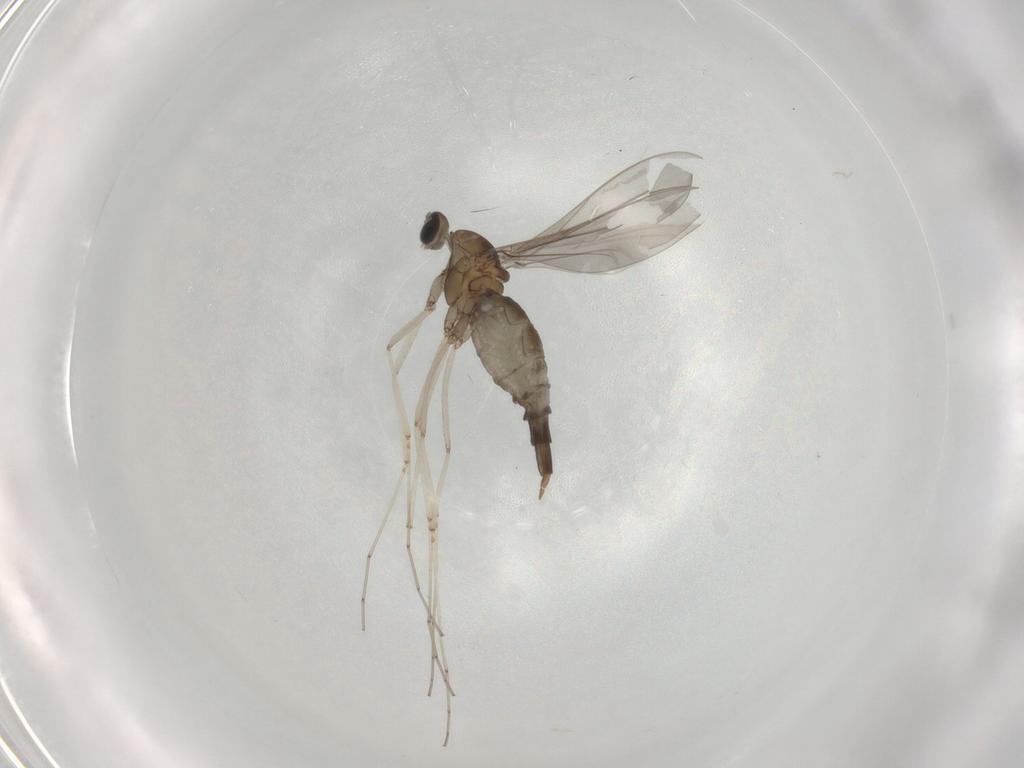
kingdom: Animalia
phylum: Arthropoda
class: Insecta
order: Diptera
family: Cecidomyiidae
